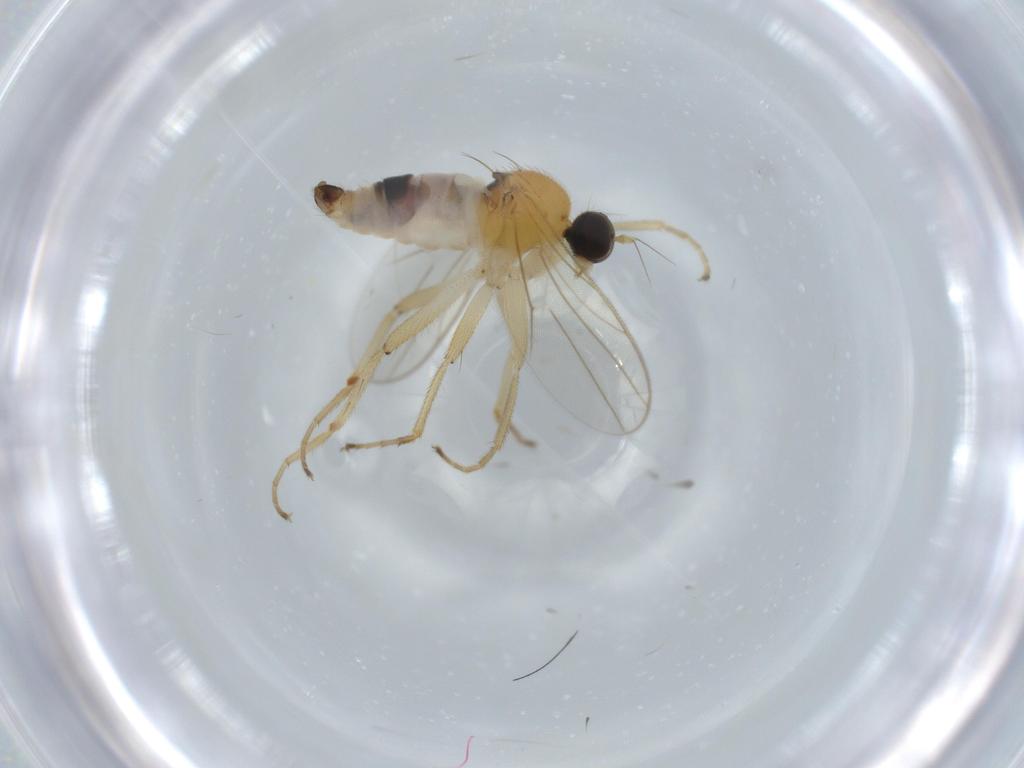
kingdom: Animalia
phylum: Arthropoda
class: Insecta
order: Diptera
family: Hybotidae
